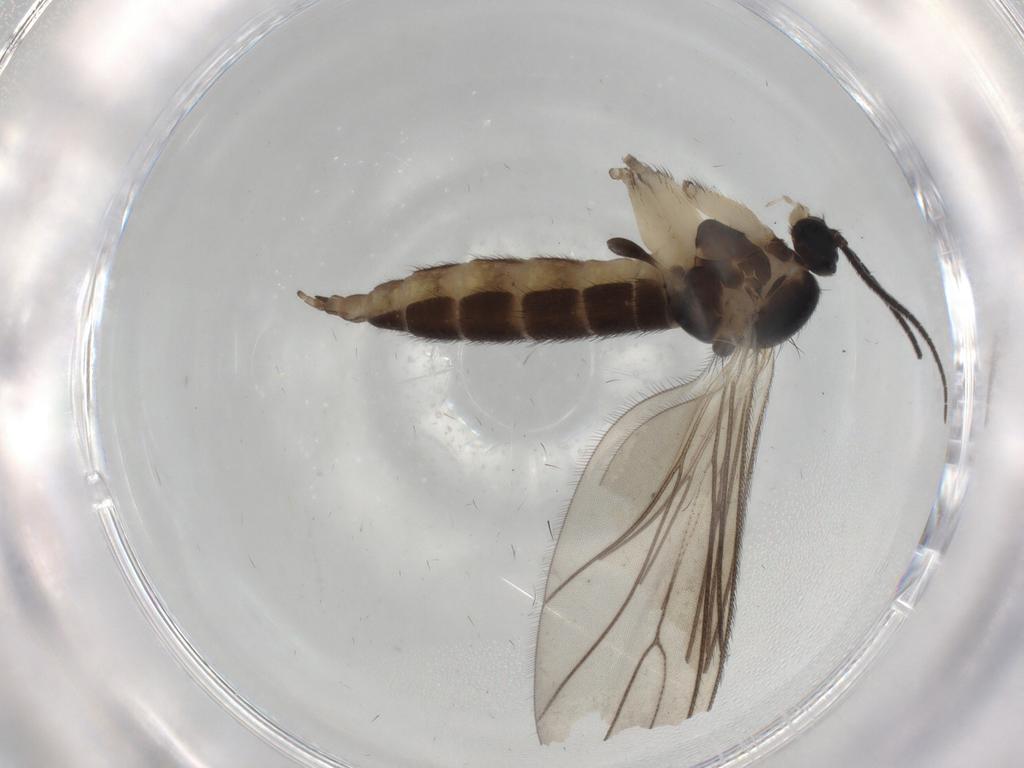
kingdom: Animalia
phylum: Arthropoda
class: Insecta
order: Diptera
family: Sciaridae
